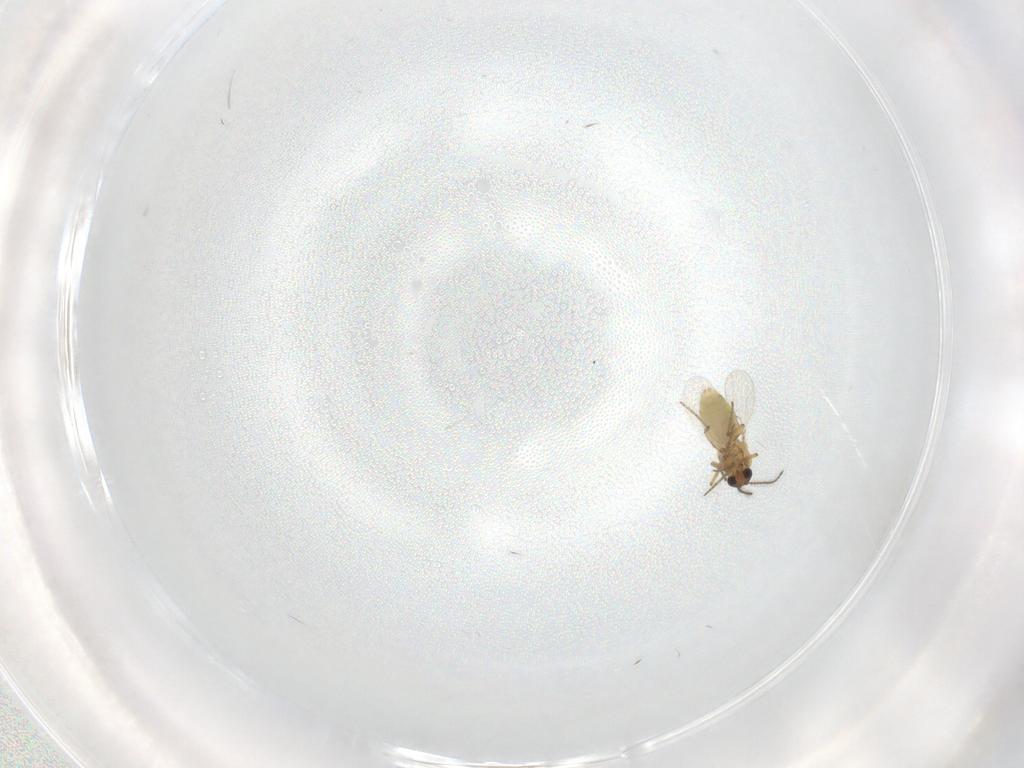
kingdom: Animalia
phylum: Arthropoda
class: Insecta
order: Diptera
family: Ceratopogonidae
